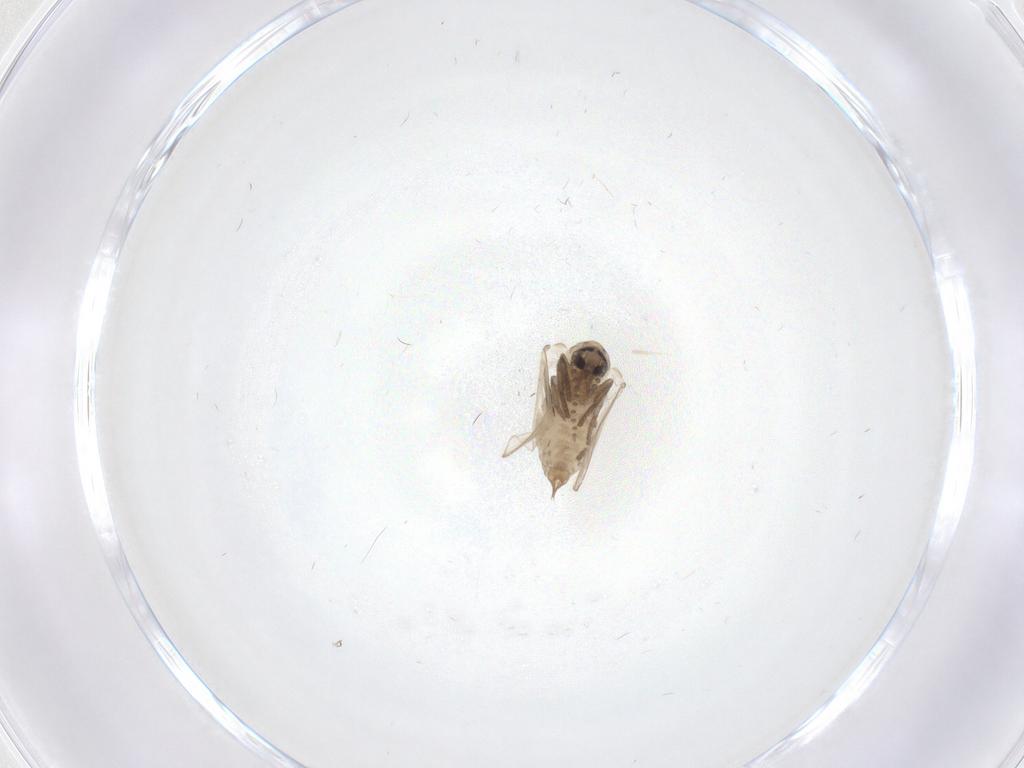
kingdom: Animalia
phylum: Arthropoda
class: Insecta
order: Diptera
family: Psychodidae
